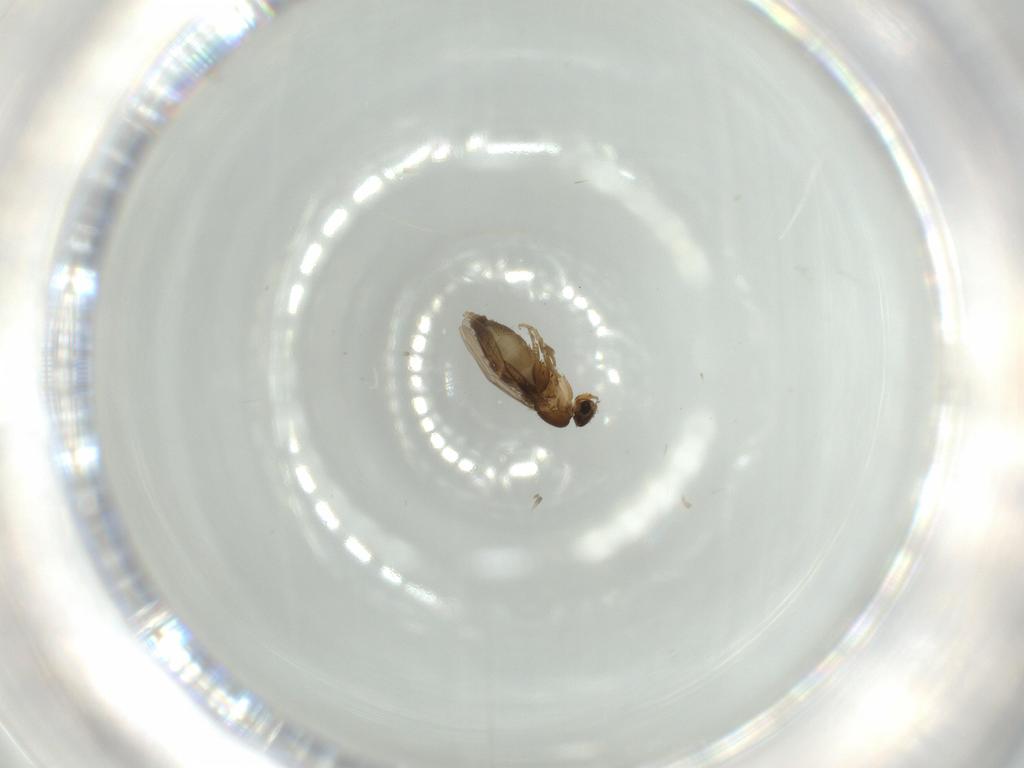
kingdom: Animalia
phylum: Arthropoda
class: Insecta
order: Diptera
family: Phoridae
